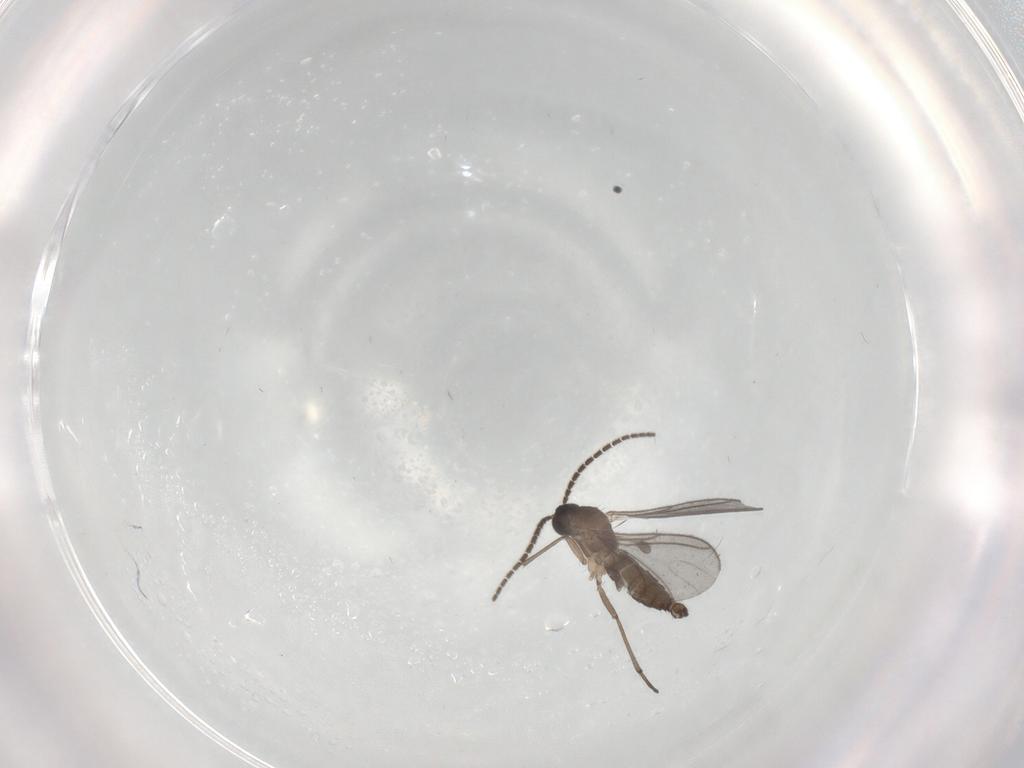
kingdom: Animalia
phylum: Arthropoda
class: Insecta
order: Diptera
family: Sciaridae
